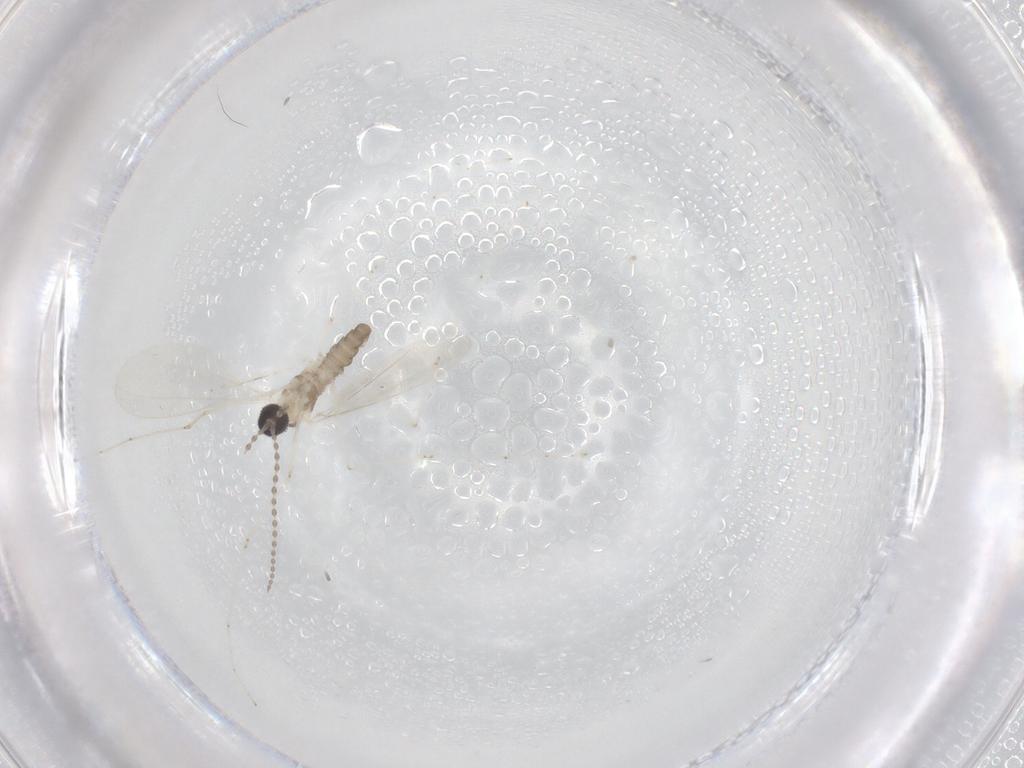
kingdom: Animalia
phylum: Arthropoda
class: Insecta
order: Diptera
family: Cecidomyiidae
